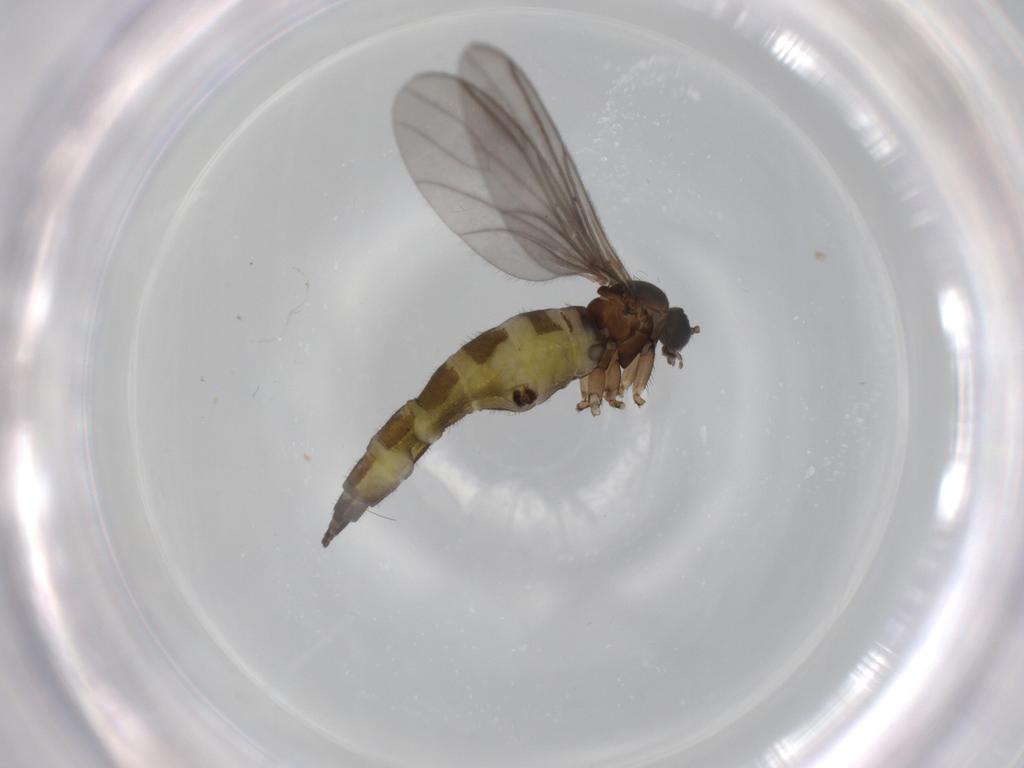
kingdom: Animalia
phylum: Arthropoda
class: Insecta
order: Diptera
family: Sciaridae
